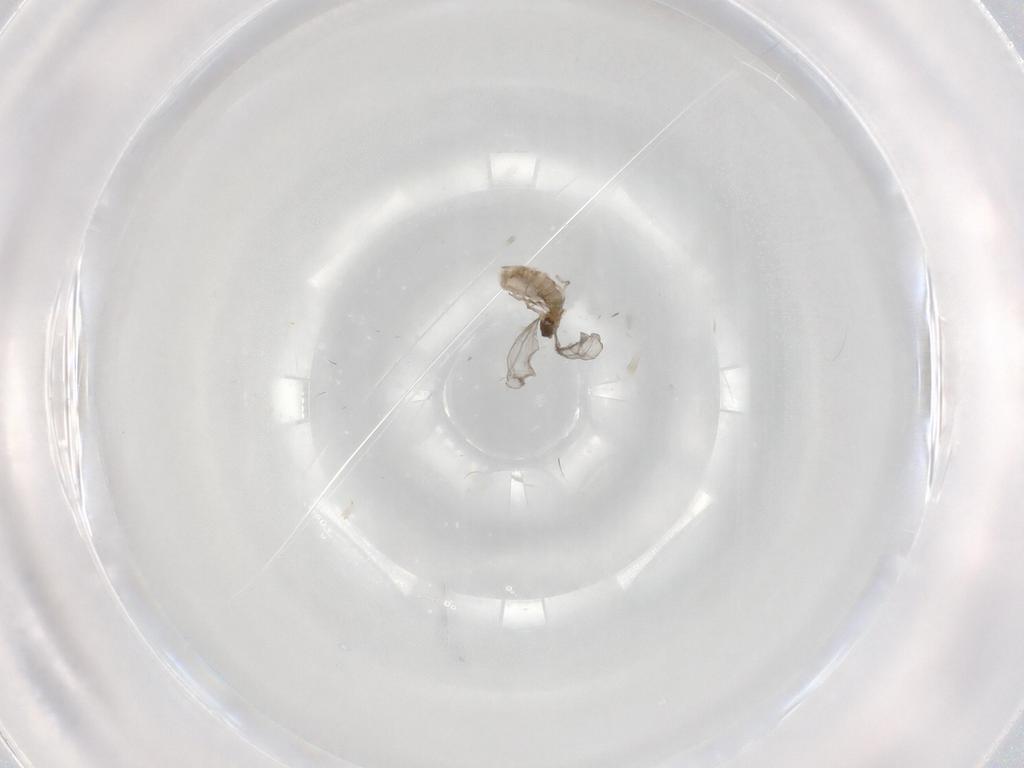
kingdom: Animalia
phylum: Arthropoda
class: Insecta
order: Diptera
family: Cecidomyiidae
